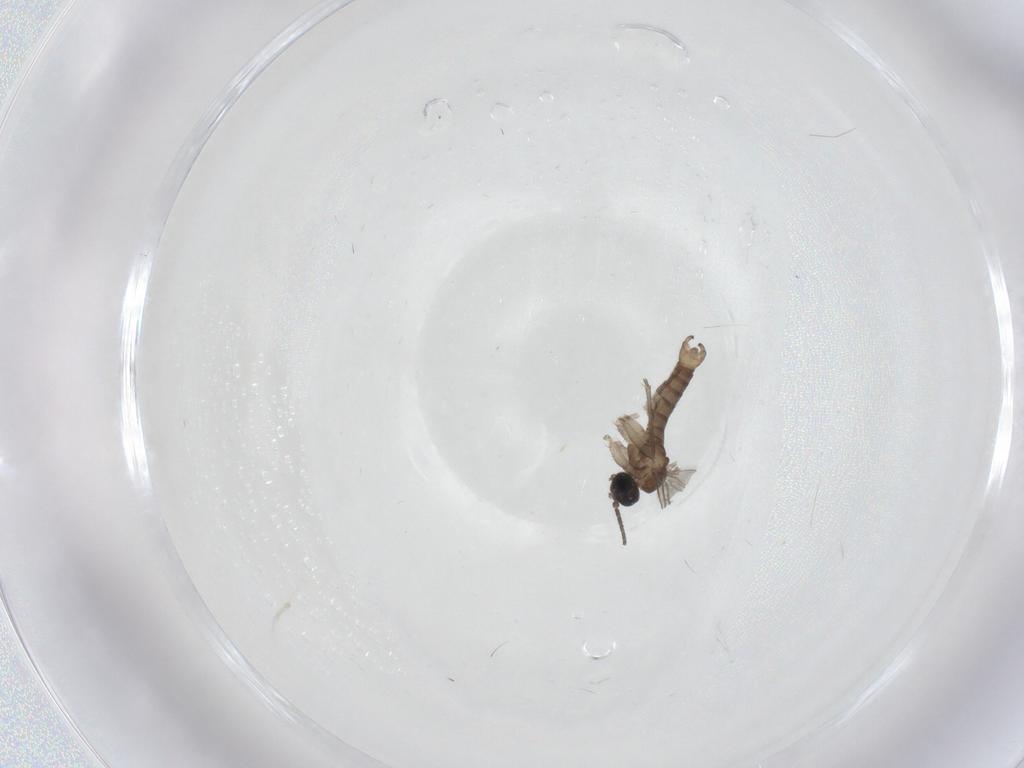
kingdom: Animalia
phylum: Arthropoda
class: Insecta
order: Diptera
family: Sciaridae
